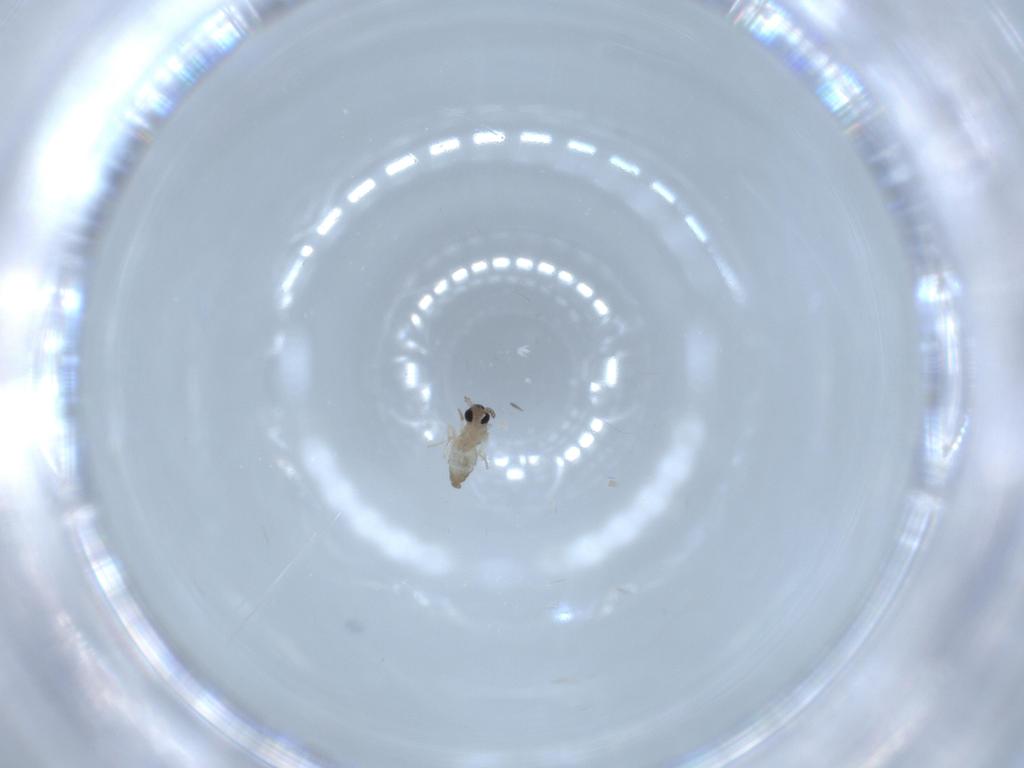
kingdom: Animalia
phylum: Arthropoda
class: Insecta
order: Diptera
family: Cecidomyiidae
